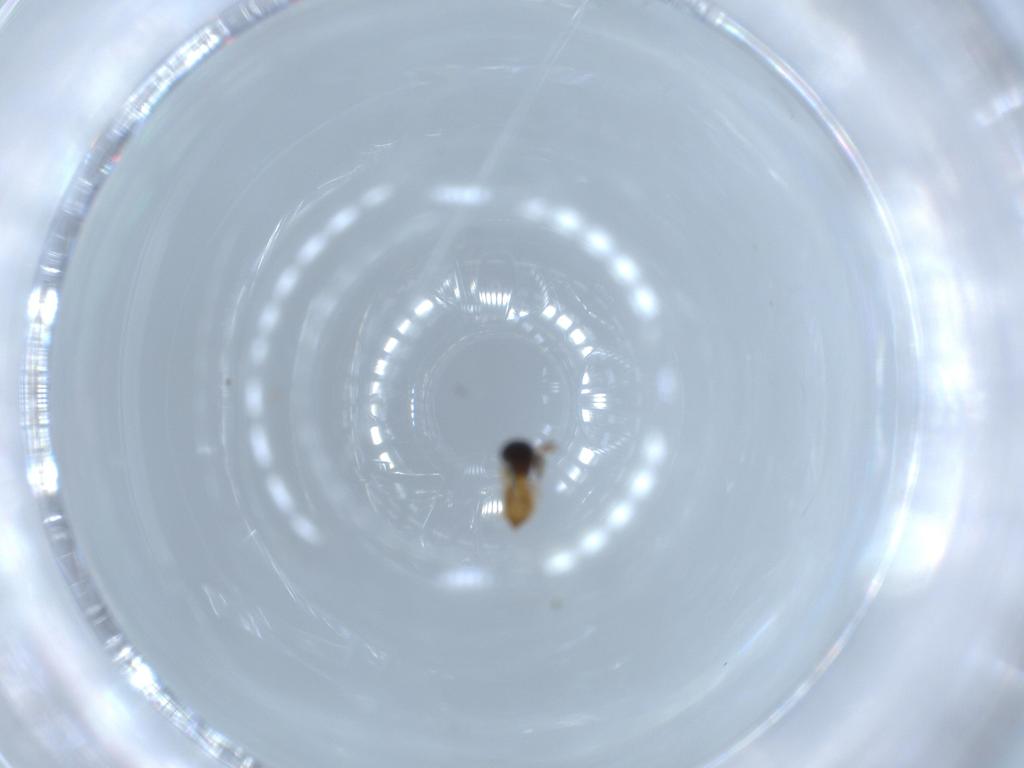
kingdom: Animalia
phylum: Arthropoda
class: Insecta
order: Hymenoptera
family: Scelionidae
